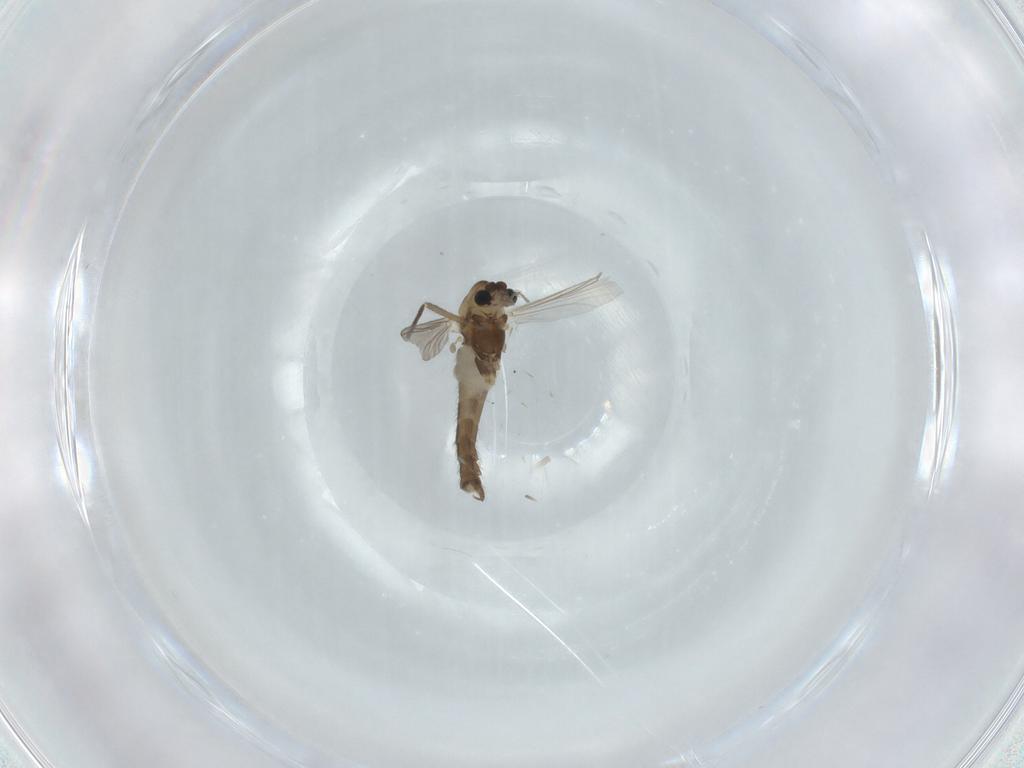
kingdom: Animalia
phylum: Arthropoda
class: Insecta
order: Diptera
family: Chironomidae
